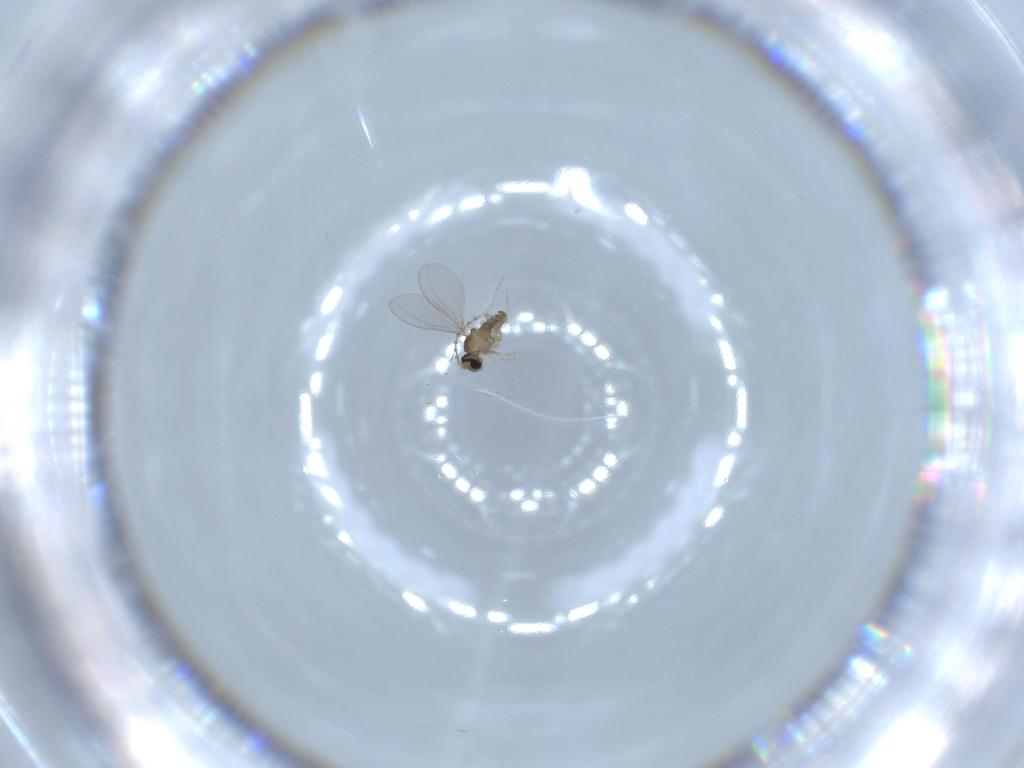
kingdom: Animalia
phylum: Arthropoda
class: Insecta
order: Diptera
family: Cecidomyiidae
